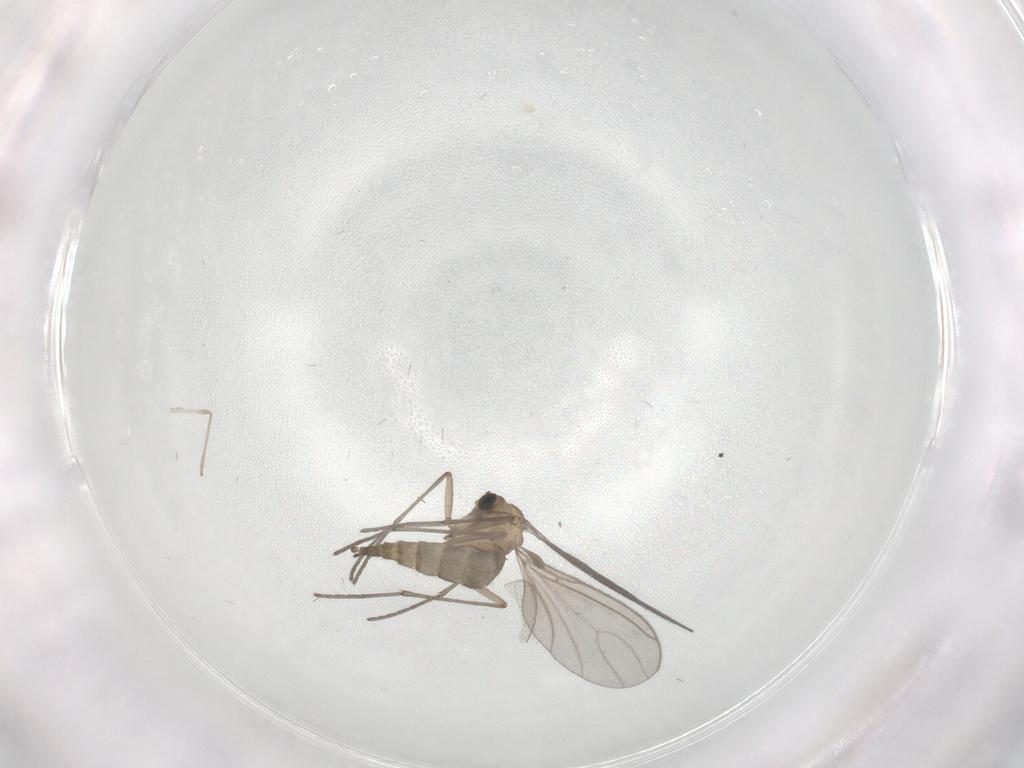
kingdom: Animalia
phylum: Arthropoda
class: Insecta
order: Diptera
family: Sciaridae
